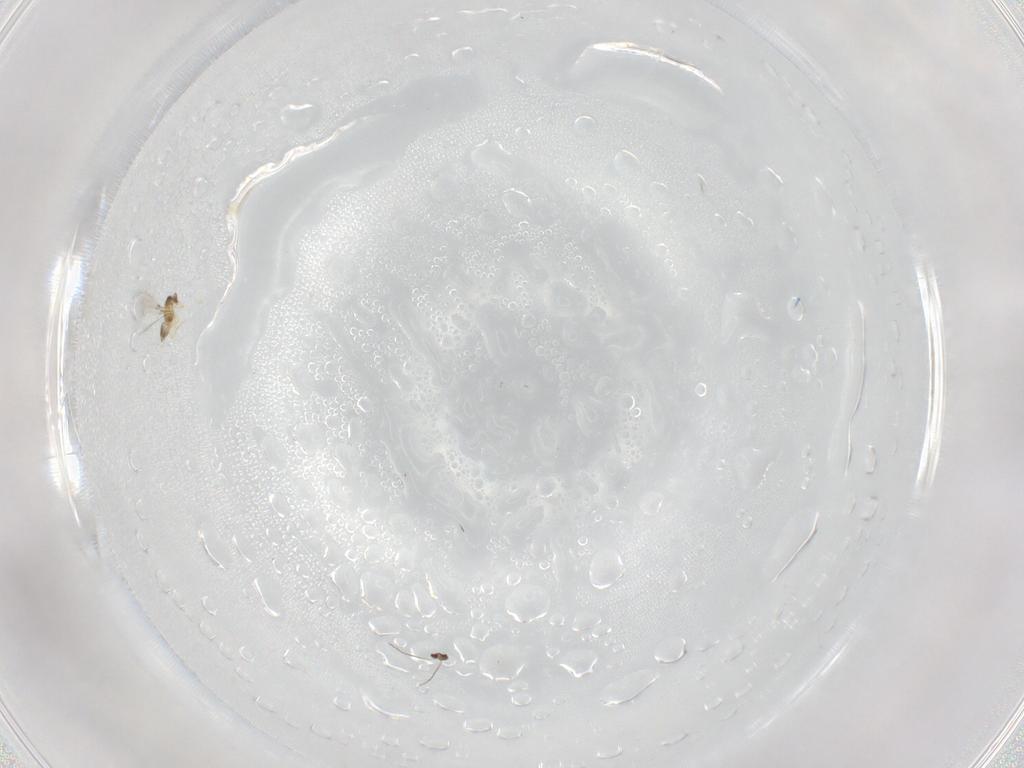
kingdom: Animalia
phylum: Arthropoda
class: Insecta
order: Hymenoptera
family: Mymaridae
